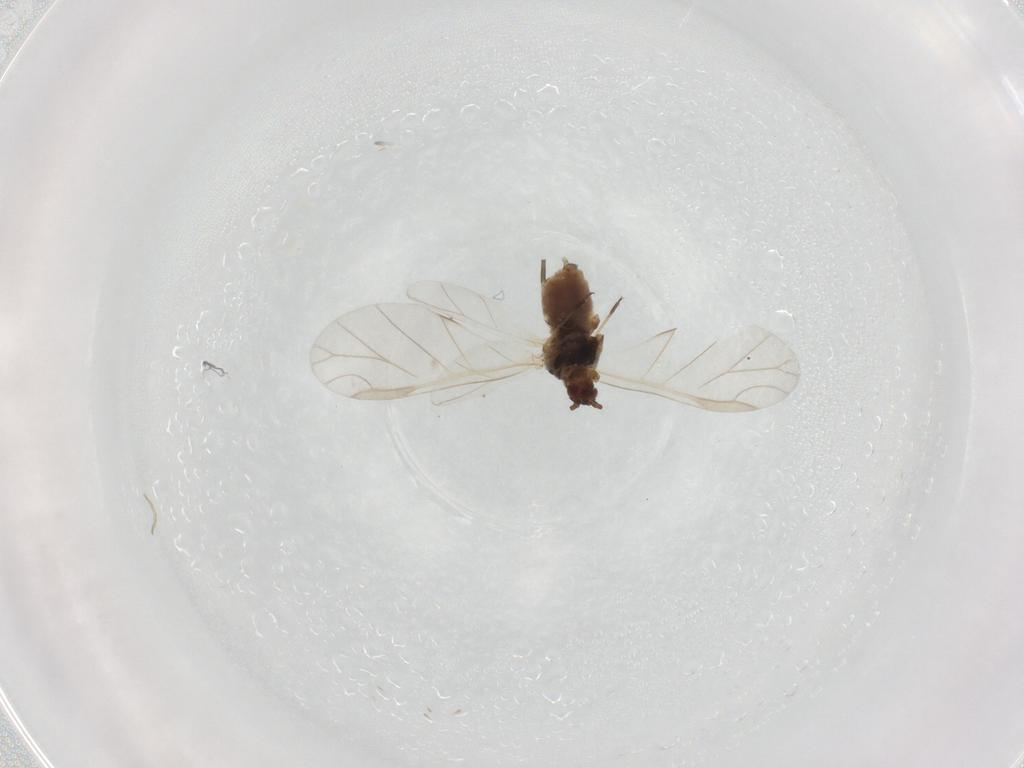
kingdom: Animalia
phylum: Arthropoda
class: Insecta
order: Hemiptera
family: Aphididae
